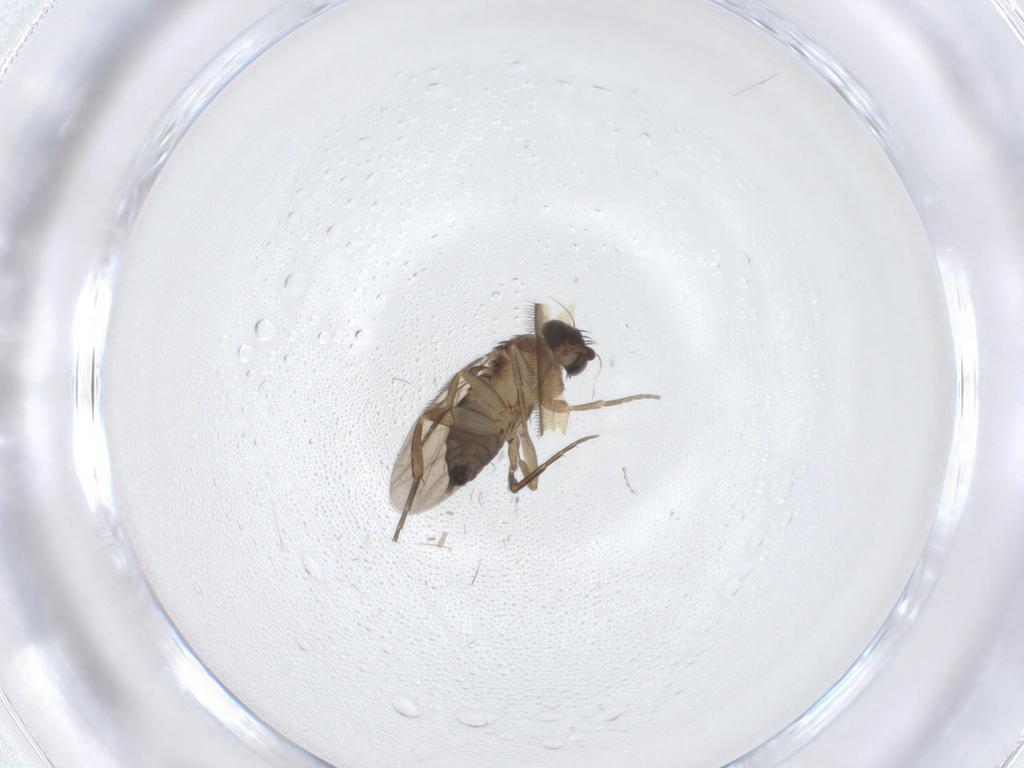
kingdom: Animalia
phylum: Arthropoda
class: Insecta
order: Diptera
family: Phoridae
